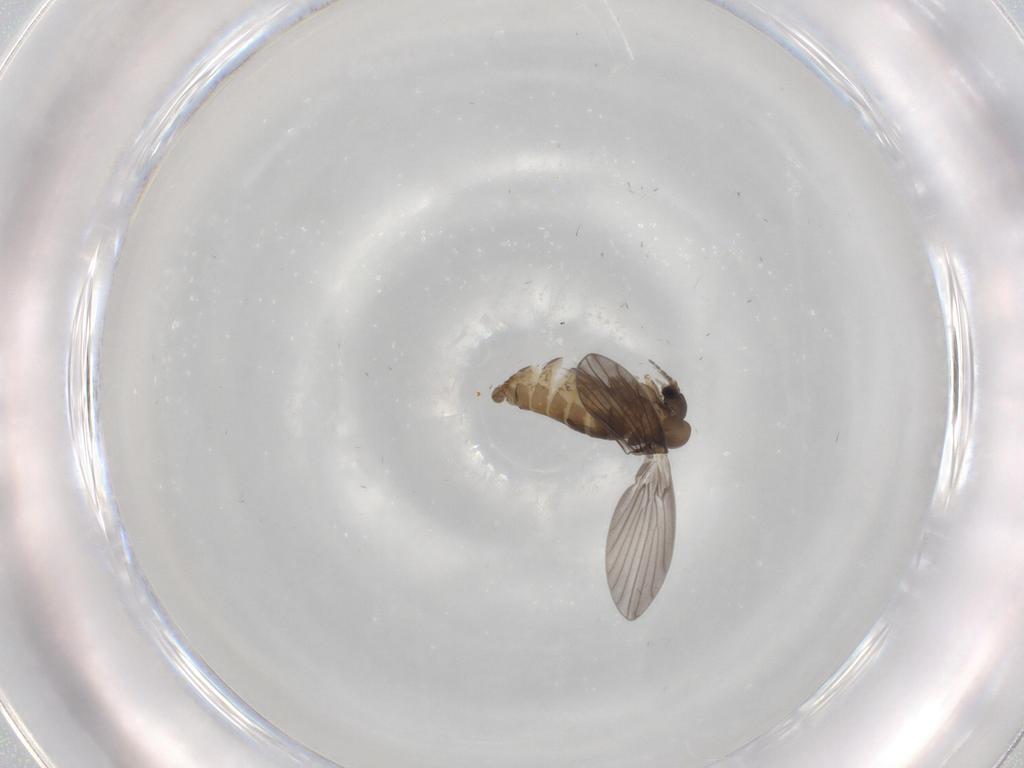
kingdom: Animalia
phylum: Arthropoda
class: Insecta
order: Diptera
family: Psychodidae
